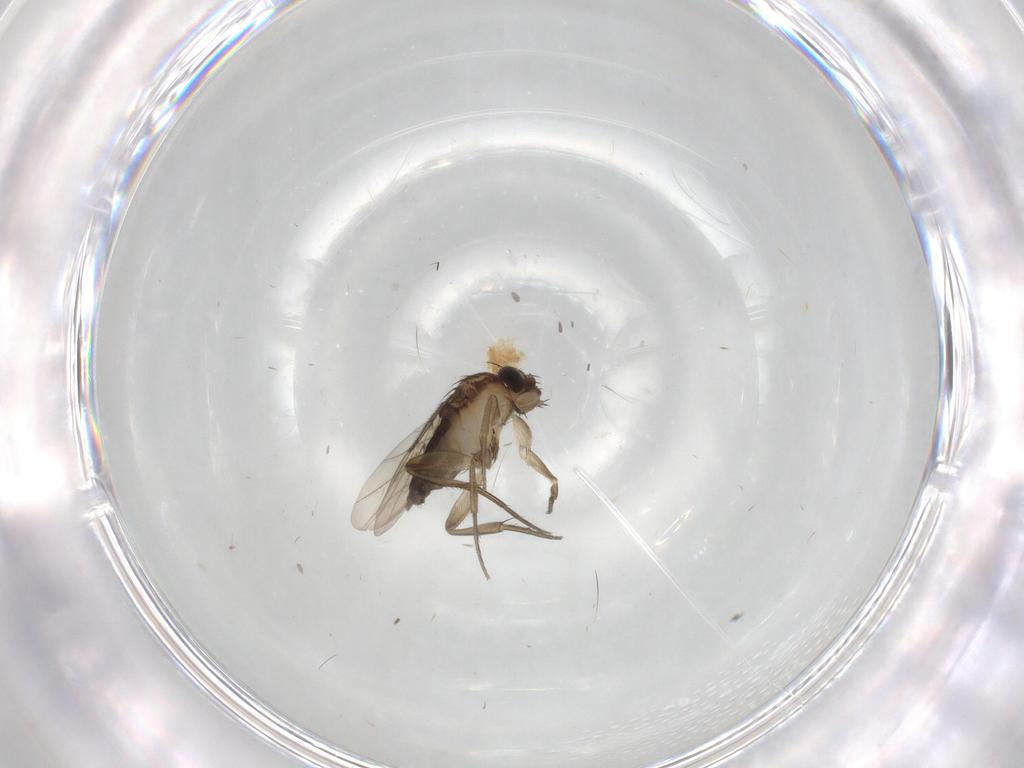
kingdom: Animalia
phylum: Arthropoda
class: Insecta
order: Diptera
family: Phoridae
